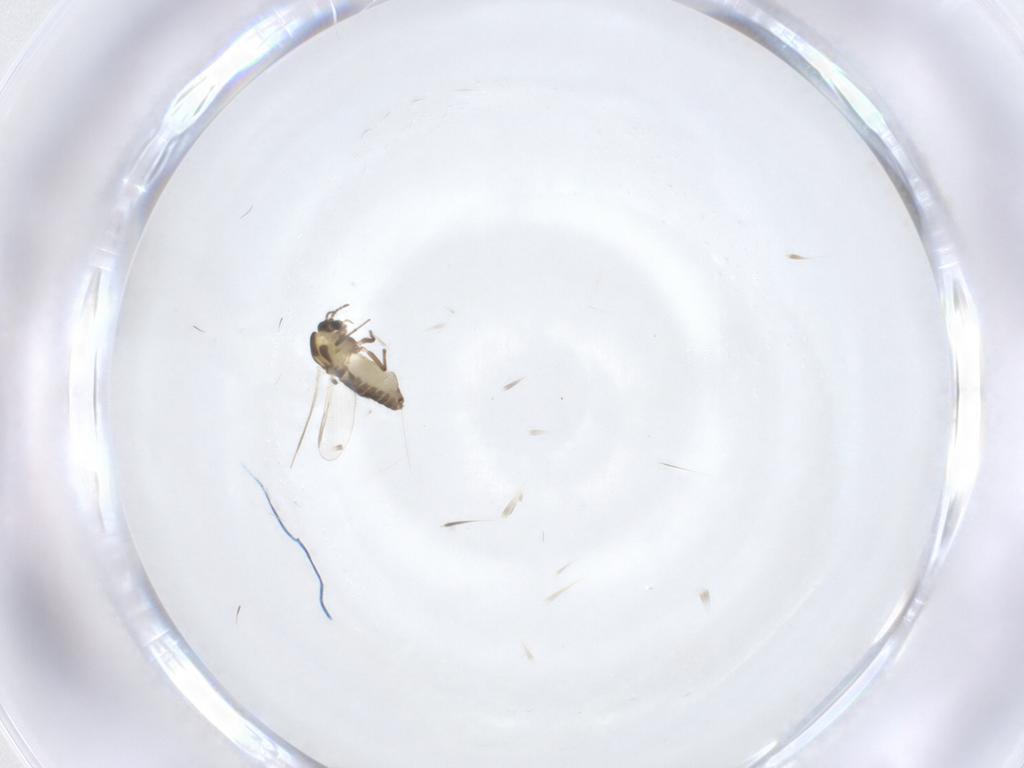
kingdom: Animalia
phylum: Arthropoda
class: Insecta
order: Diptera
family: Chironomidae
